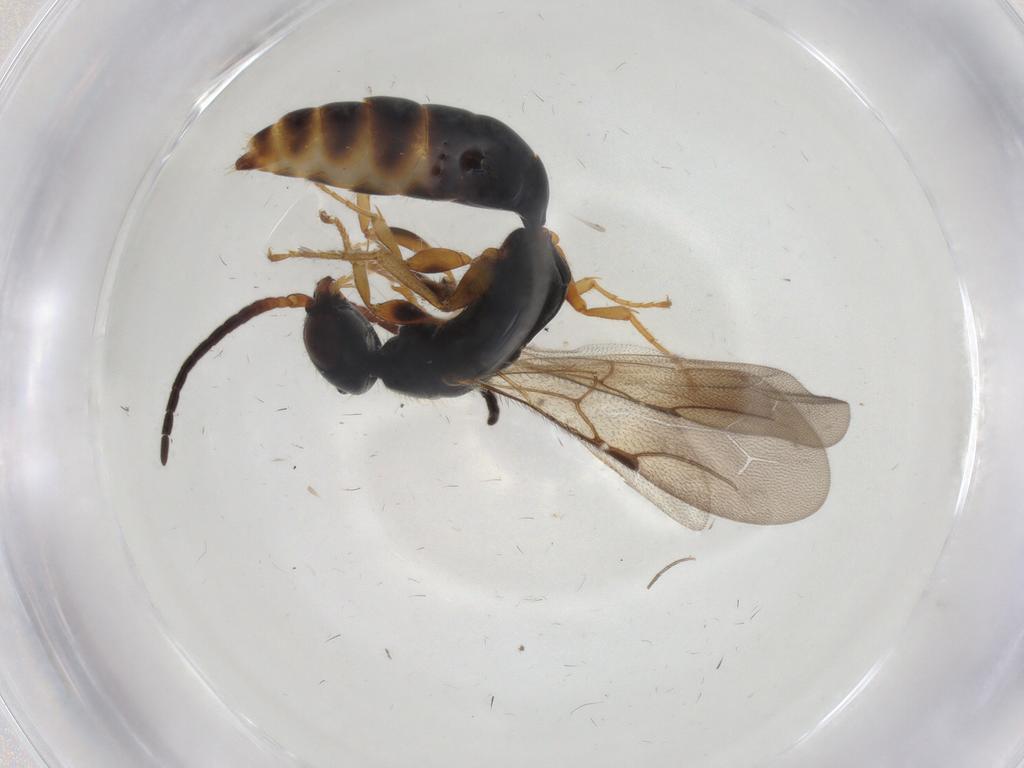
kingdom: Animalia
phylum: Arthropoda
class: Insecta
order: Hymenoptera
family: Bethylidae
